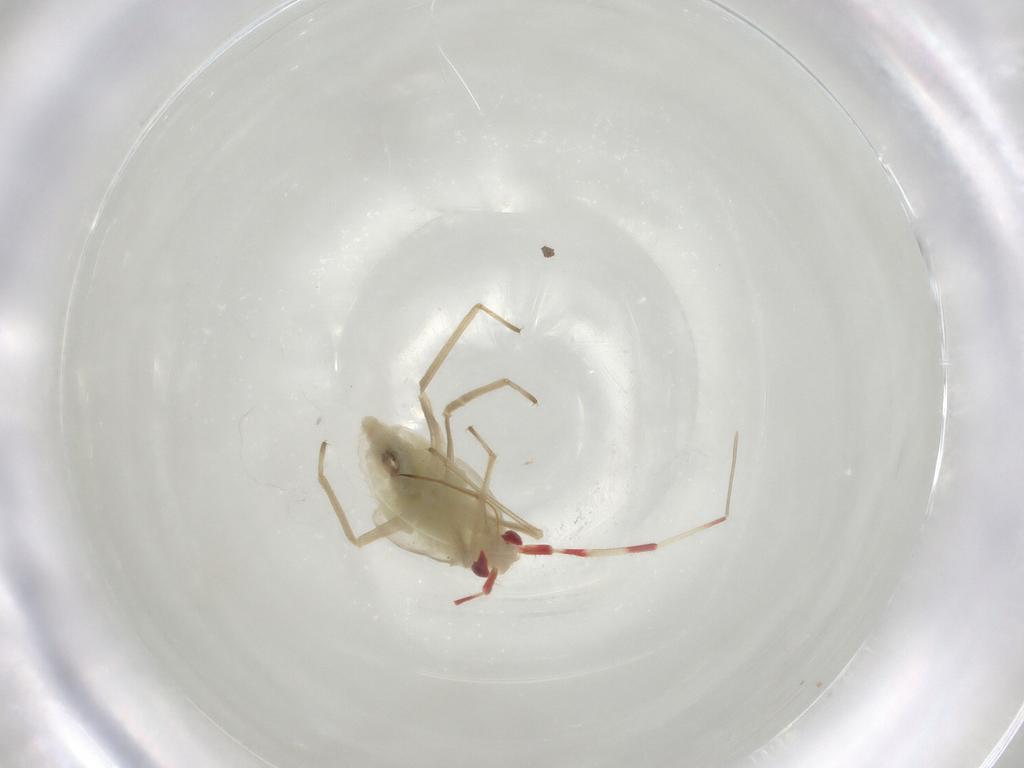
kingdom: Animalia
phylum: Arthropoda
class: Insecta
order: Hemiptera
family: Miridae
